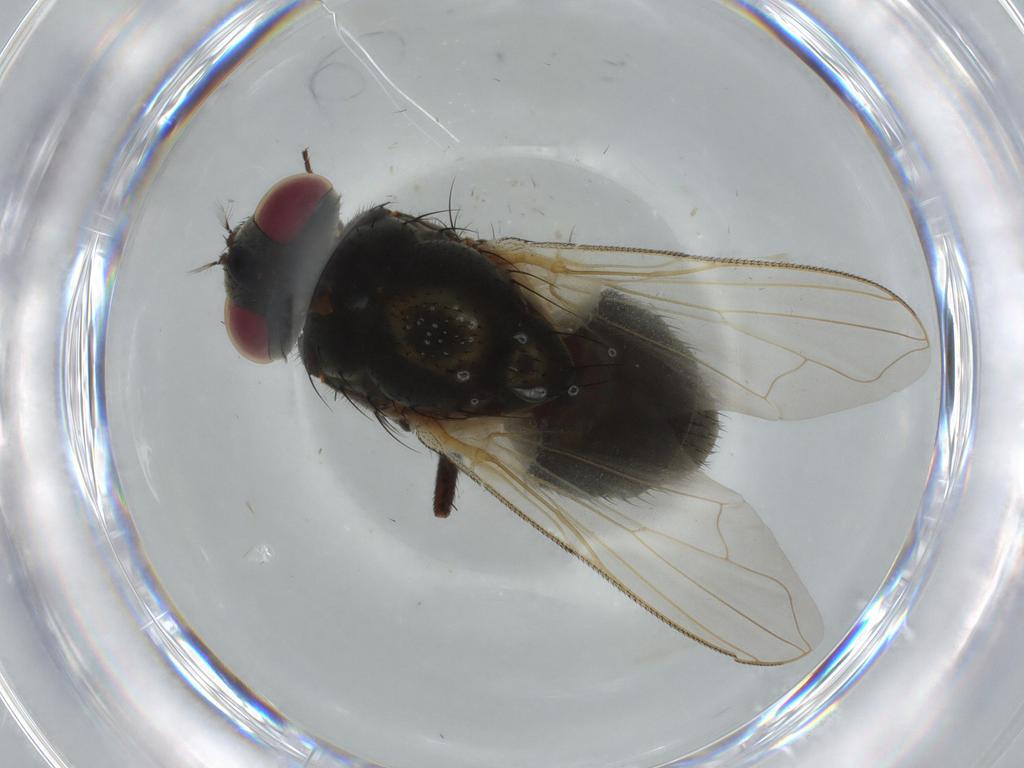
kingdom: Animalia
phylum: Arthropoda
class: Insecta
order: Diptera
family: Dolichopodidae
